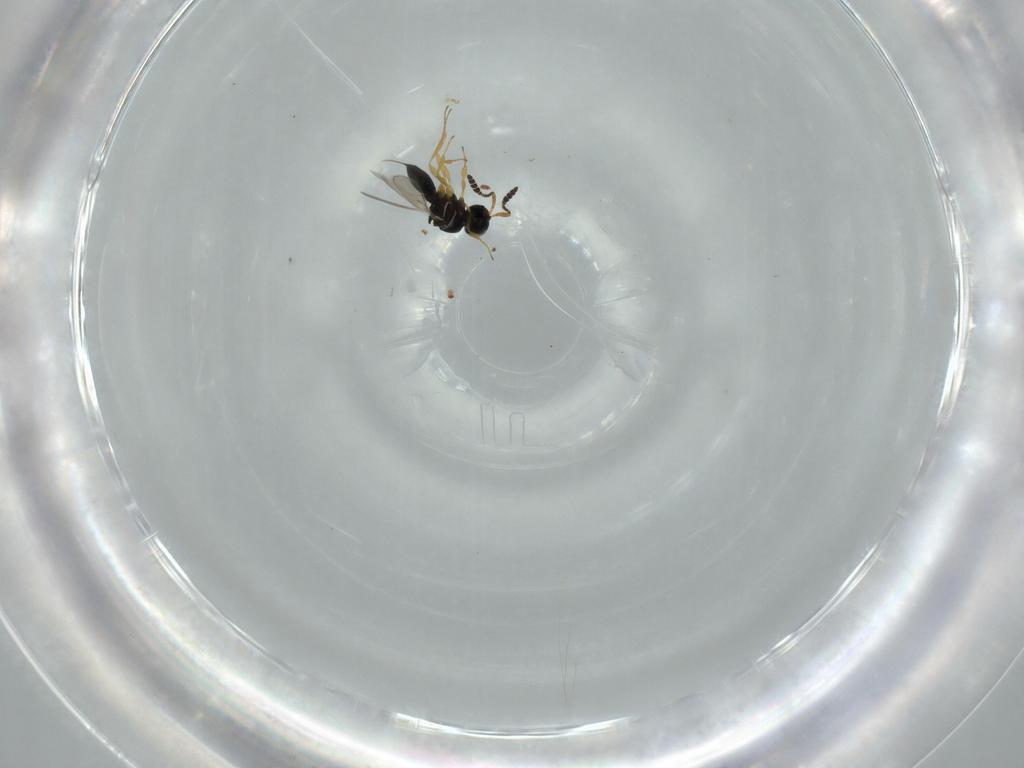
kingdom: Animalia
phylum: Arthropoda
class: Insecta
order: Hymenoptera
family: Scelionidae
